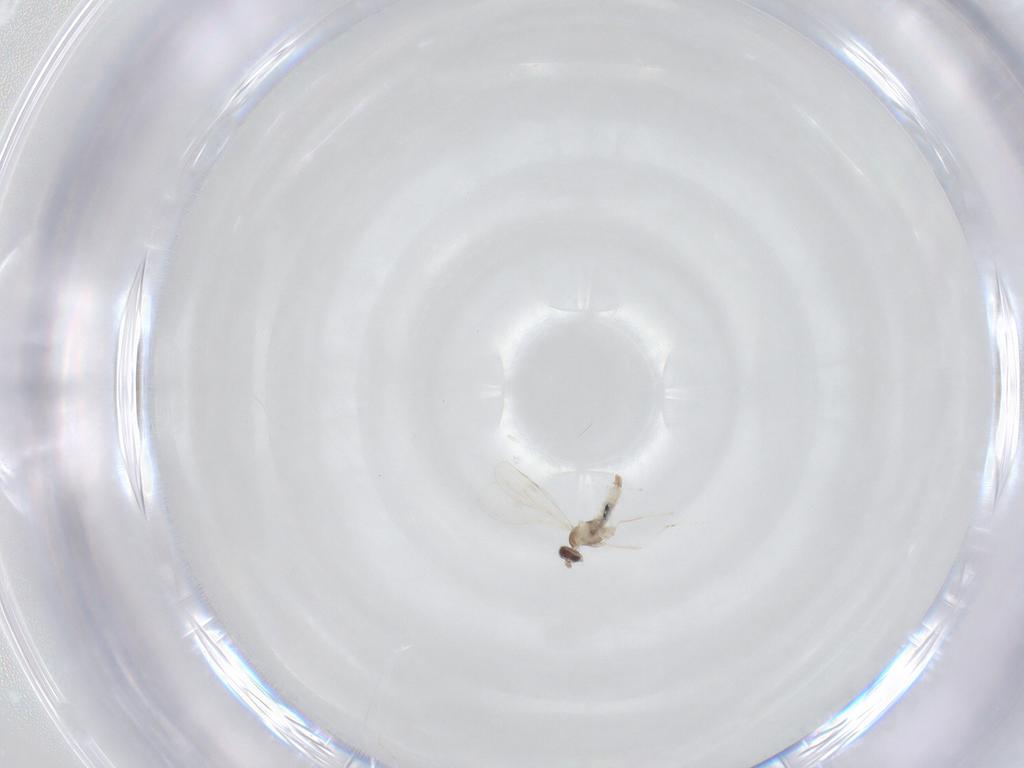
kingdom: Animalia
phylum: Arthropoda
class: Insecta
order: Diptera
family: Cecidomyiidae
